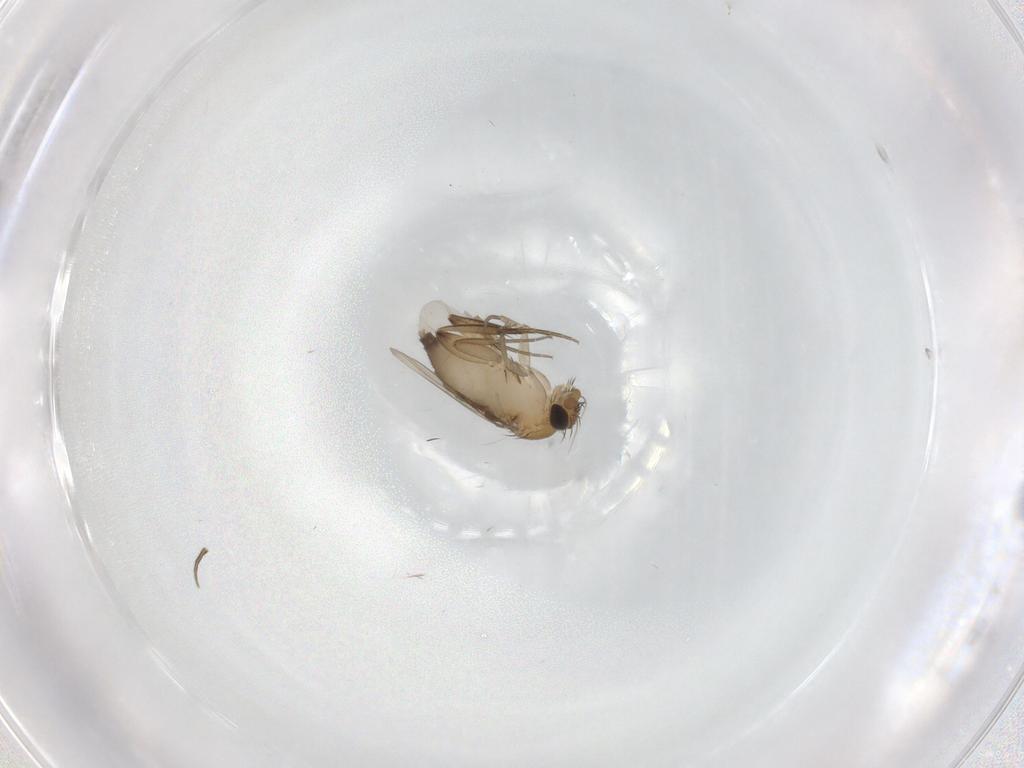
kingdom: Animalia
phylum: Arthropoda
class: Insecta
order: Diptera
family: Phoridae
